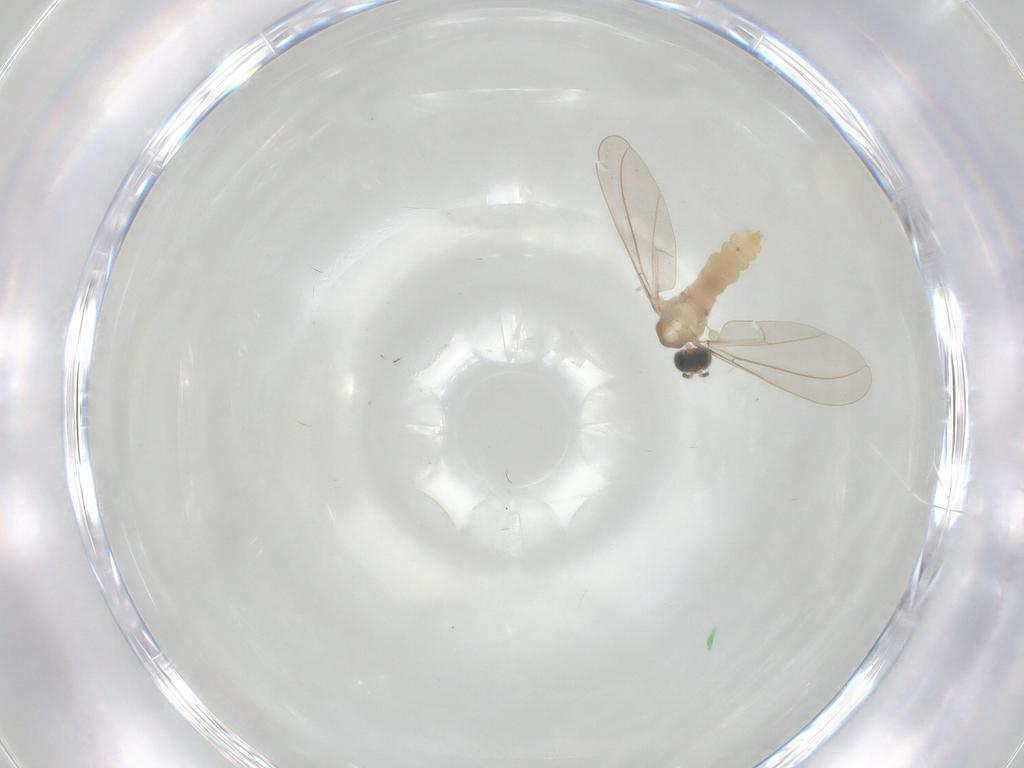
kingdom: Animalia
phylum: Arthropoda
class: Insecta
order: Diptera
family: Cecidomyiidae
